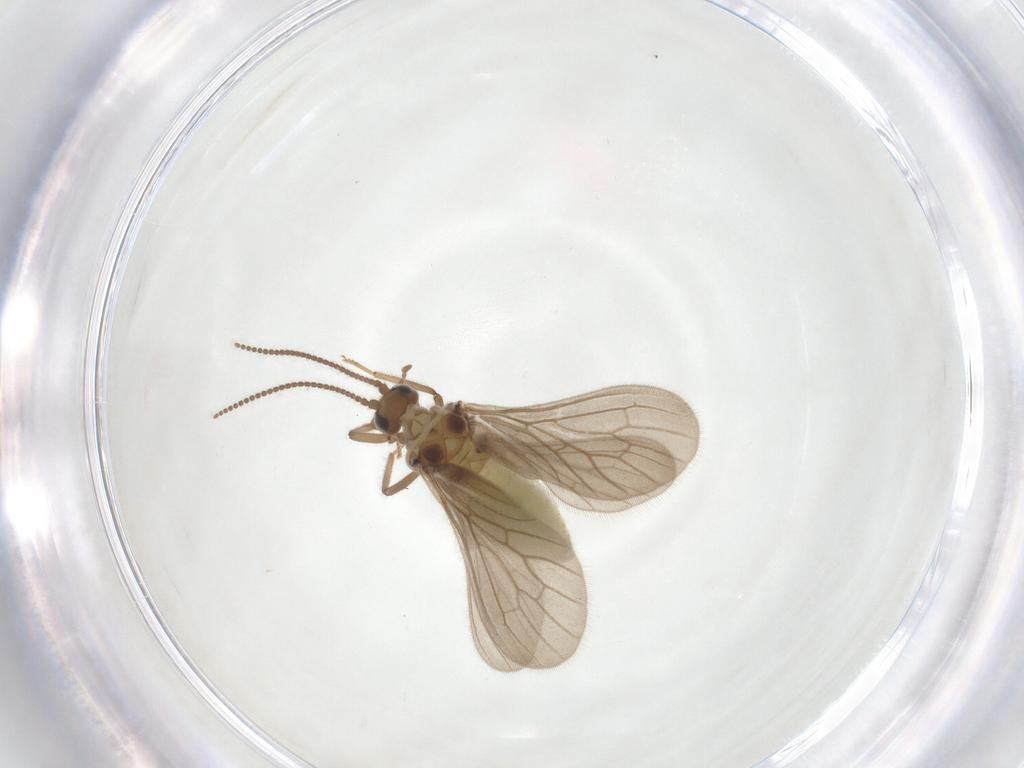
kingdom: Animalia
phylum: Arthropoda
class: Insecta
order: Neuroptera
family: Coniopterygidae
